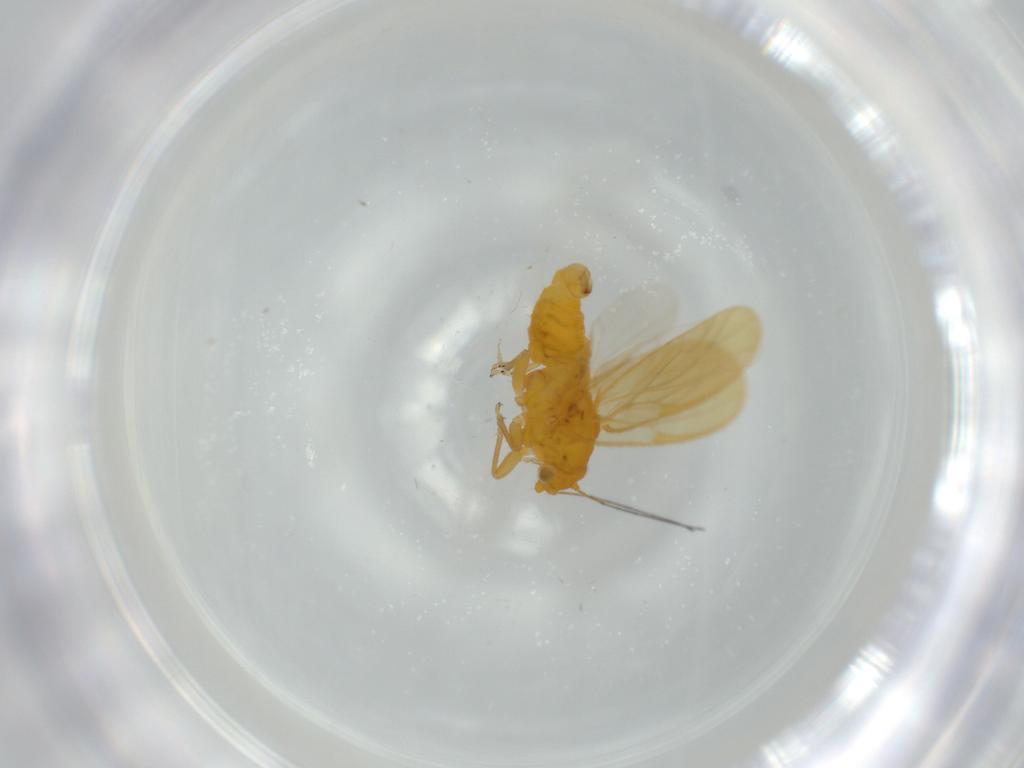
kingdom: Animalia
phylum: Arthropoda
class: Insecta
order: Hemiptera
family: Psyllidae
